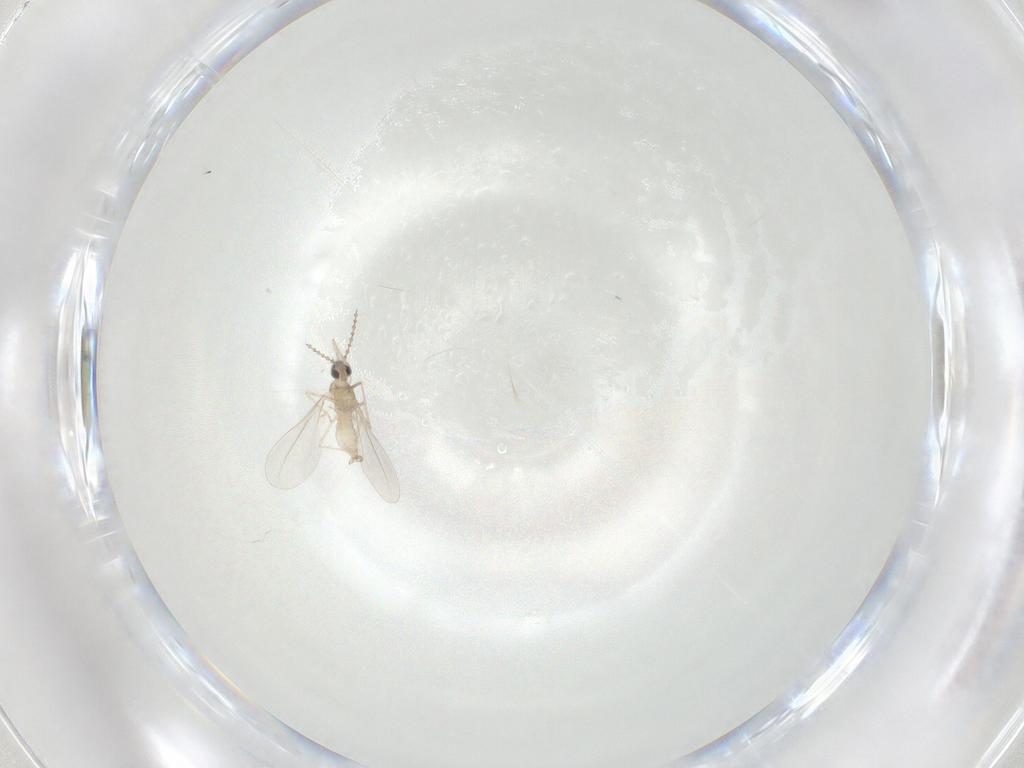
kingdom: Animalia
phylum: Arthropoda
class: Insecta
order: Diptera
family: Cecidomyiidae
